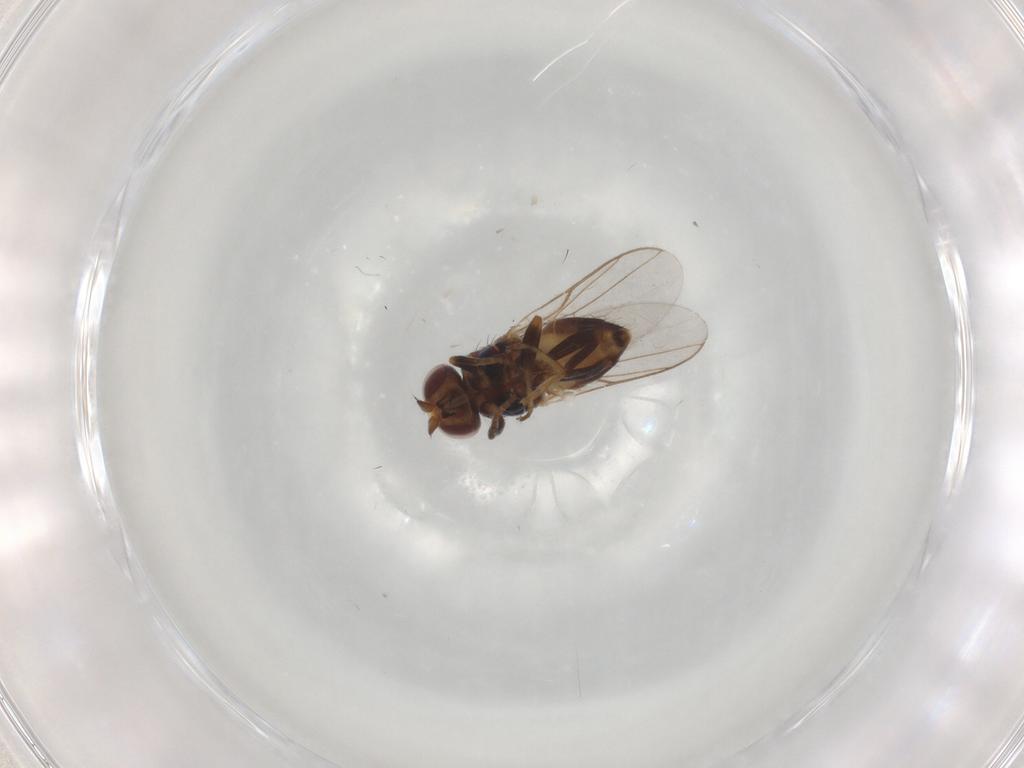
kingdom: Animalia
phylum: Arthropoda
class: Insecta
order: Diptera
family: Chloropidae
